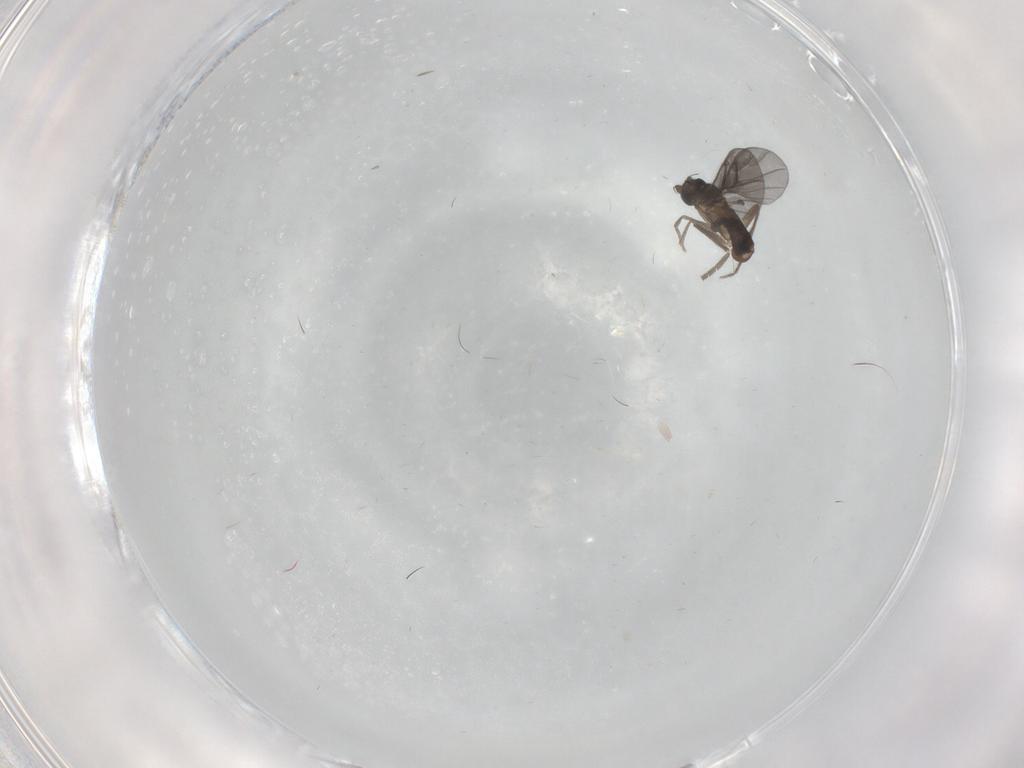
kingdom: Animalia
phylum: Arthropoda
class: Insecta
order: Diptera
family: Phoridae
